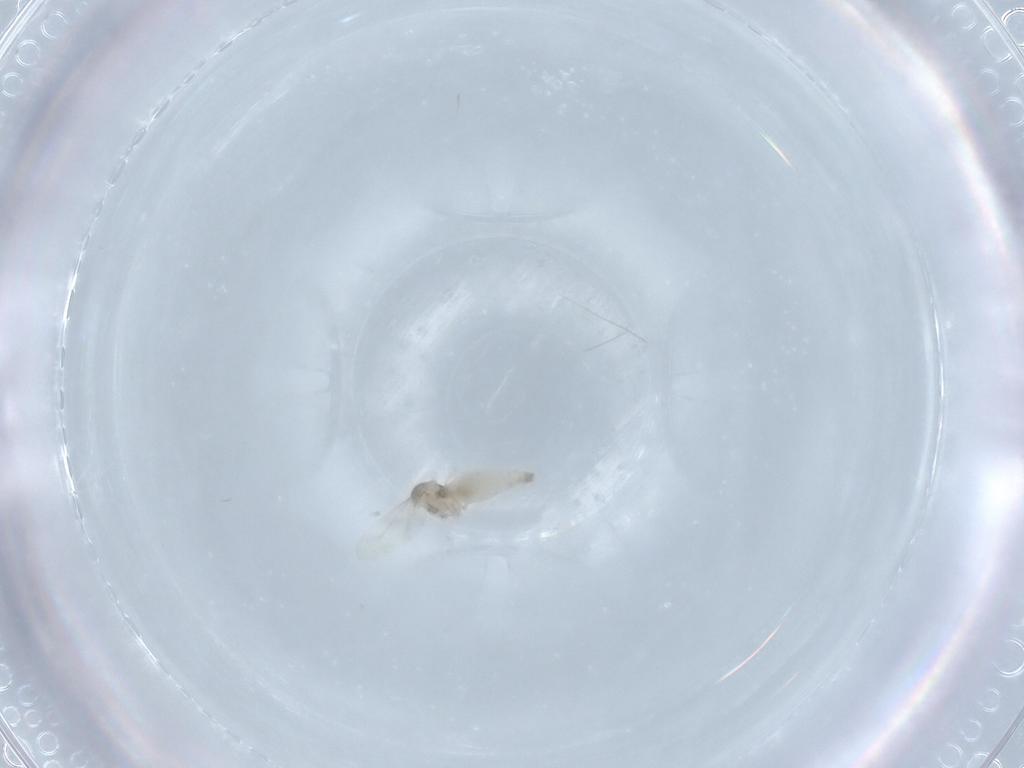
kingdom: Animalia
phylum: Arthropoda
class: Insecta
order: Diptera
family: Cecidomyiidae
